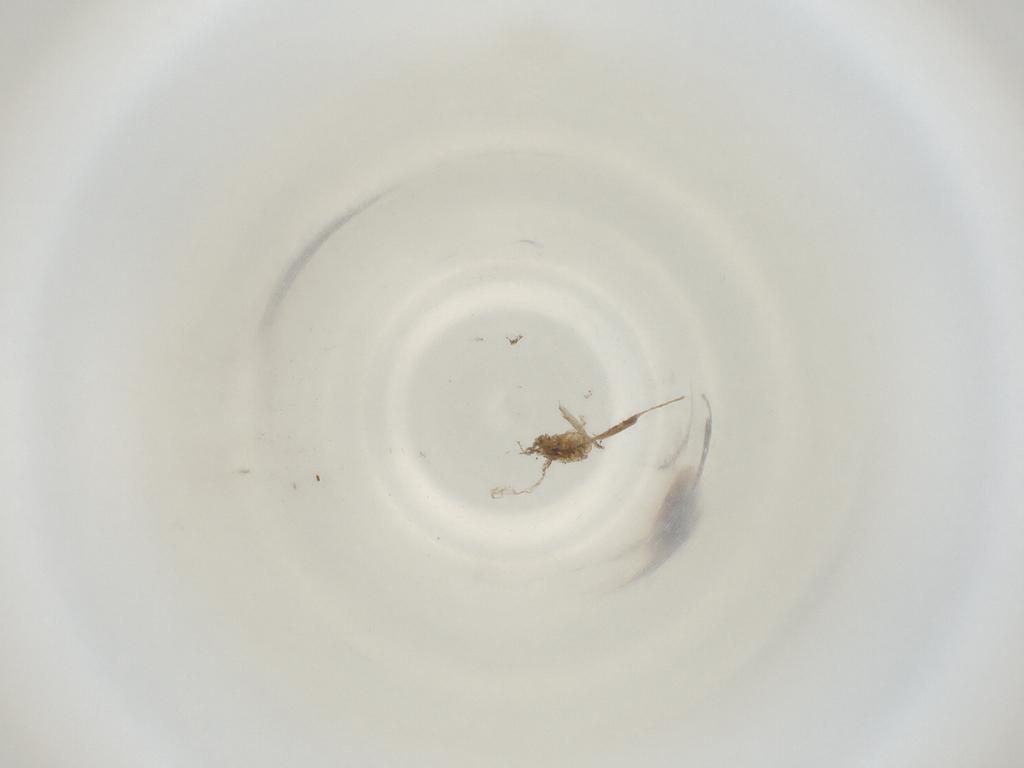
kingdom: Animalia
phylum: Arthropoda
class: Insecta
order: Diptera
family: Cecidomyiidae
